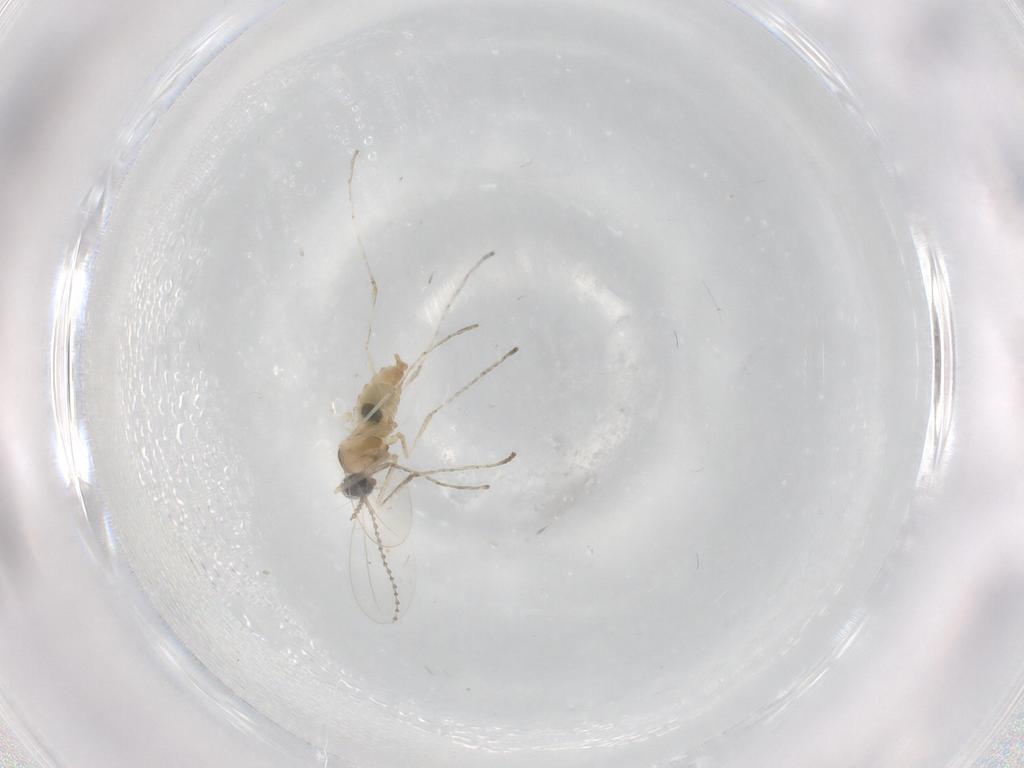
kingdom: Animalia
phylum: Arthropoda
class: Insecta
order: Diptera
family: Cecidomyiidae
